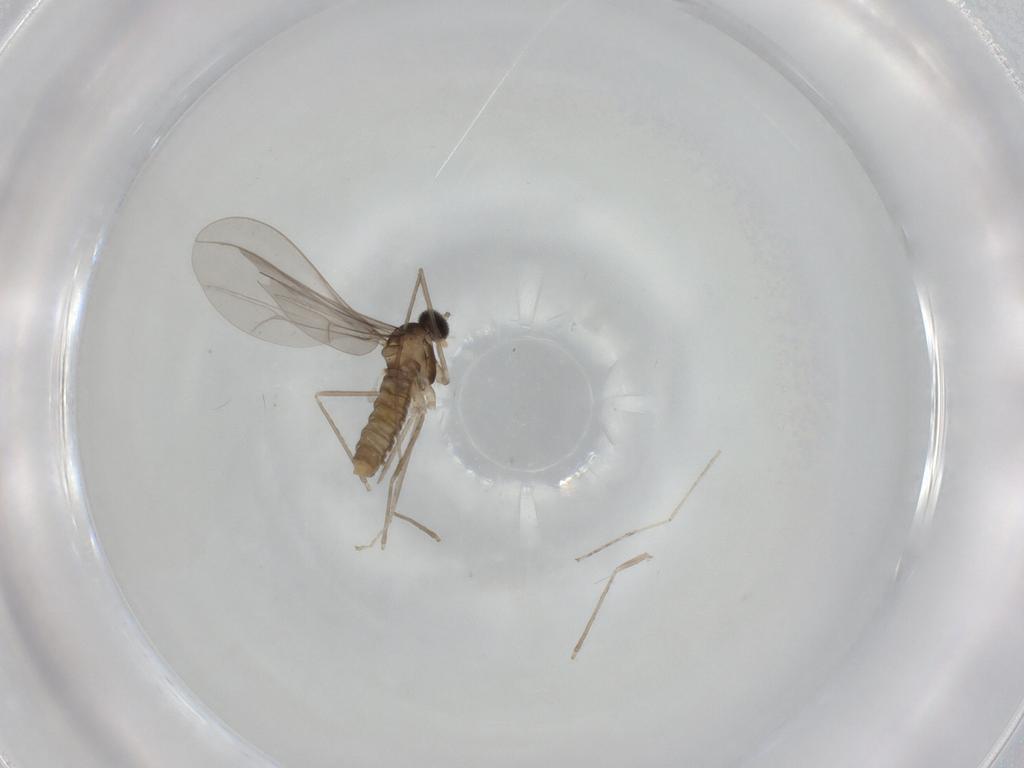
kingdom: Animalia
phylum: Arthropoda
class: Insecta
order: Diptera
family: Cecidomyiidae
